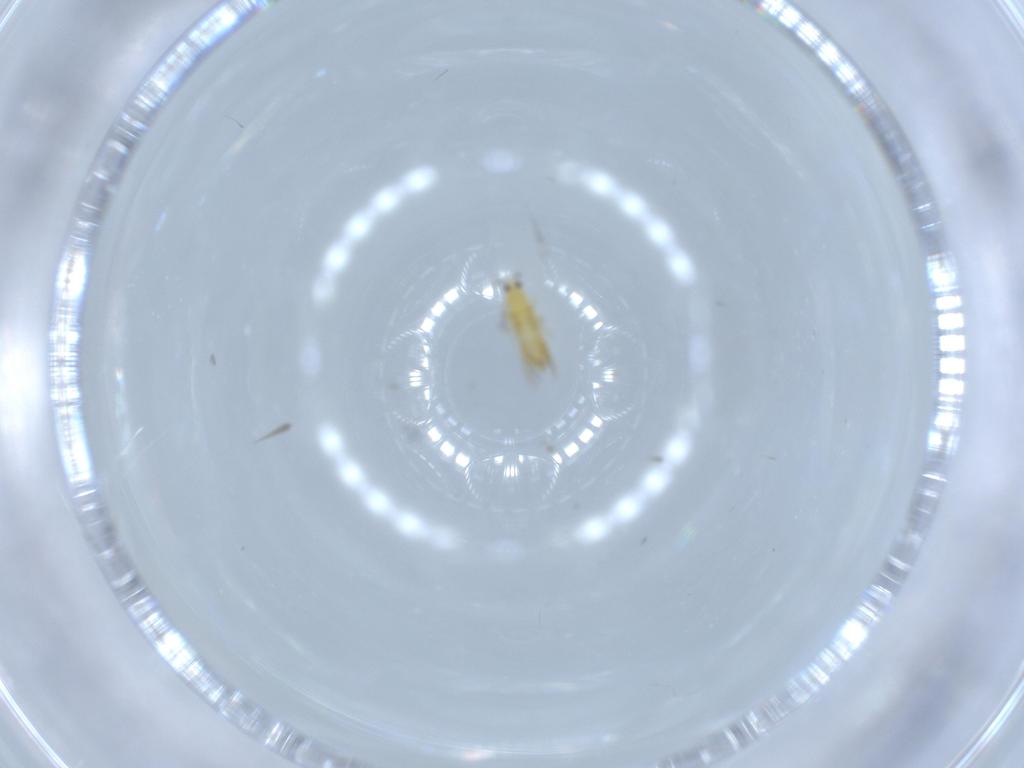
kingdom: Animalia
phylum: Arthropoda
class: Insecta
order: Thysanoptera
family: Thripidae
